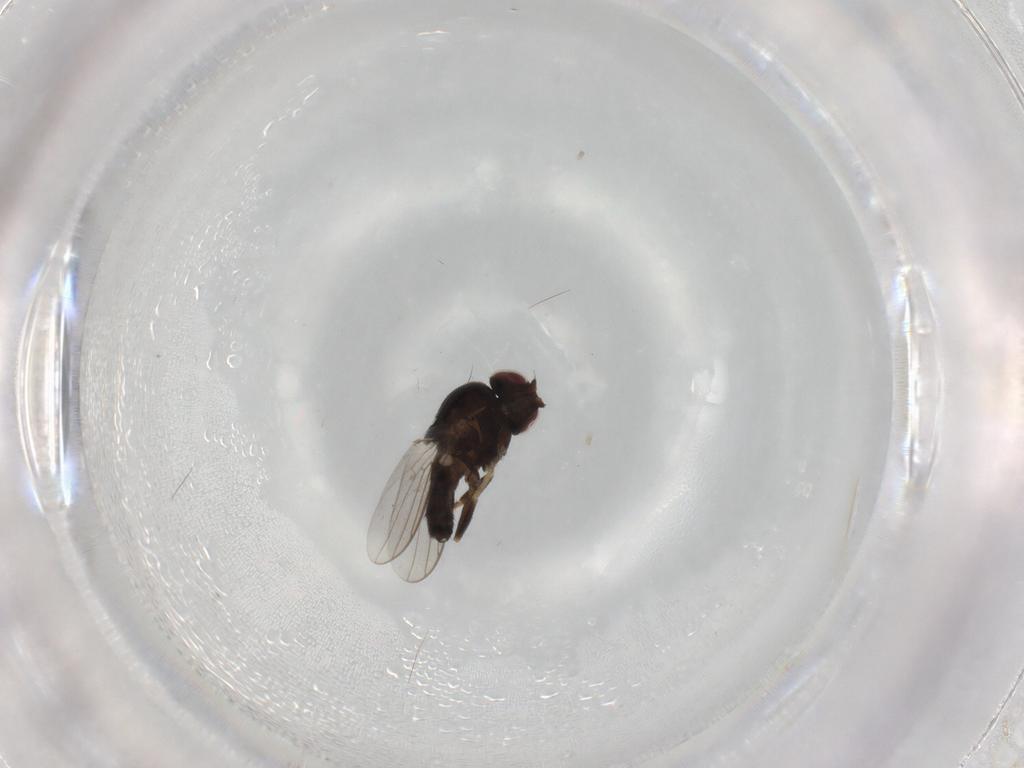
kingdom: Animalia
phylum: Arthropoda
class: Insecta
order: Diptera
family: Chloropidae
